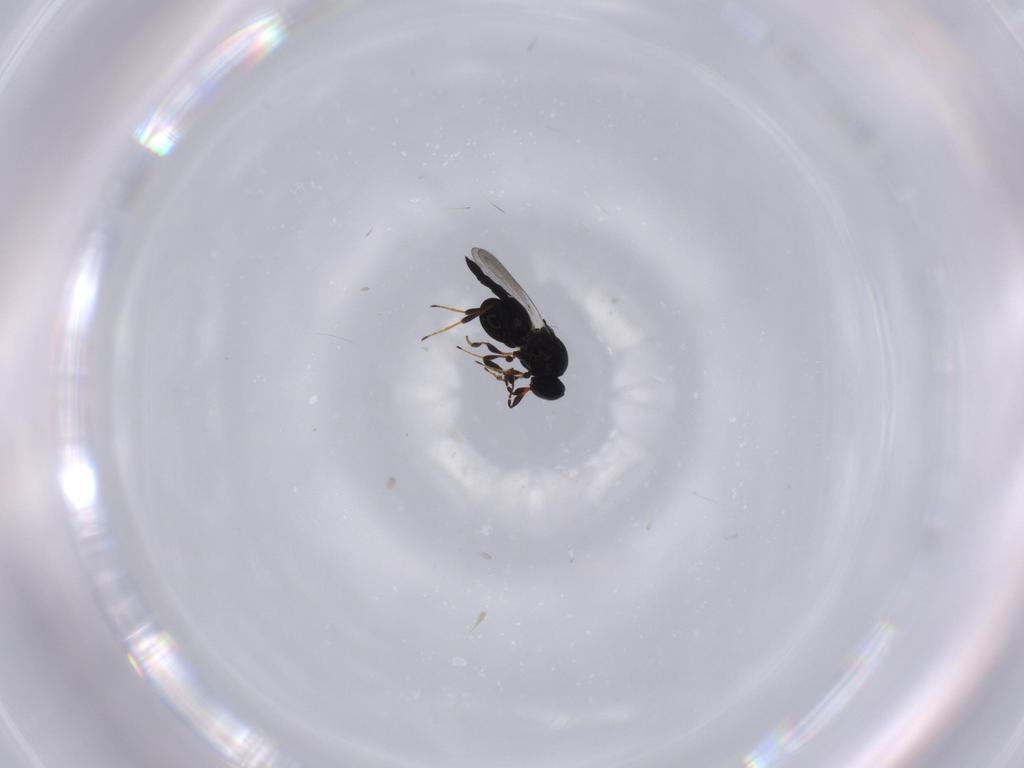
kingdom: Animalia
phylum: Arthropoda
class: Insecta
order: Hymenoptera
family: Platygastridae
